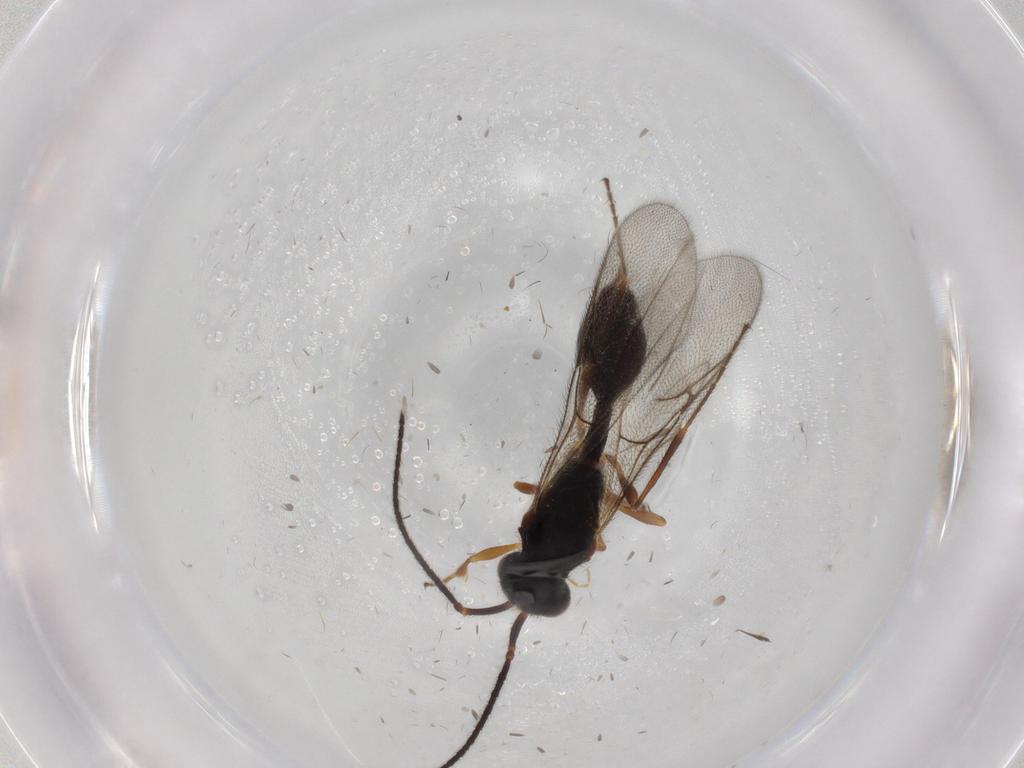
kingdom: Animalia
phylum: Arthropoda
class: Insecta
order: Hymenoptera
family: Diapriidae
